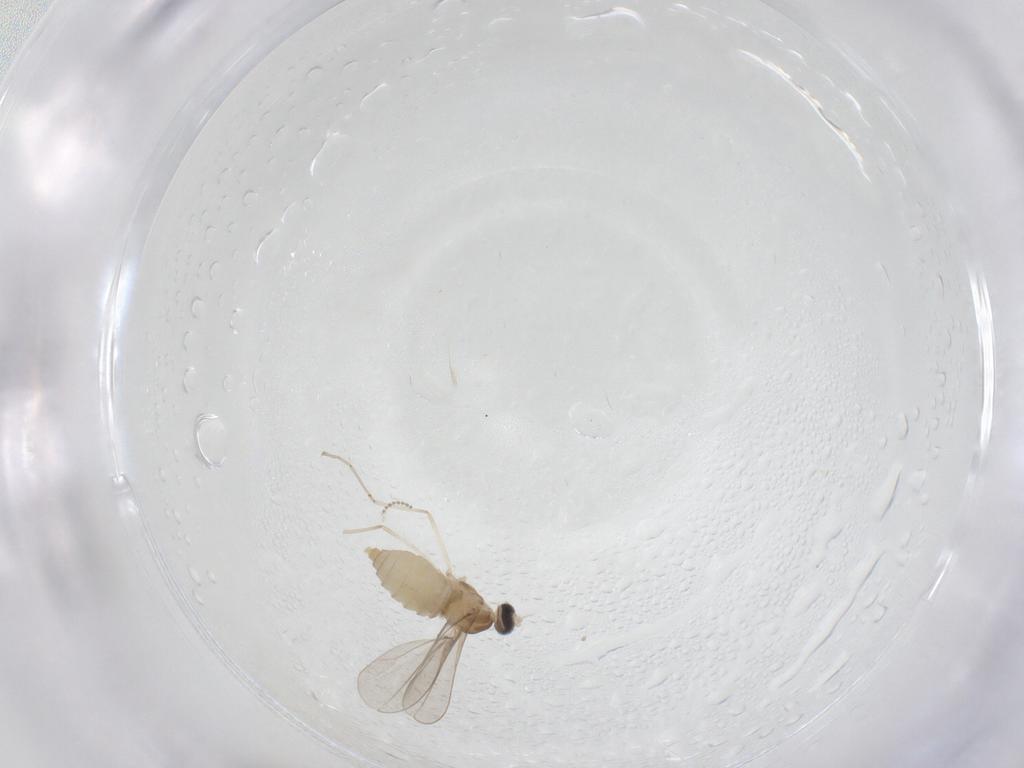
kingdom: Animalia
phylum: Arthropoda
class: Insecta
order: Diptera
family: Cecidomyiidae
